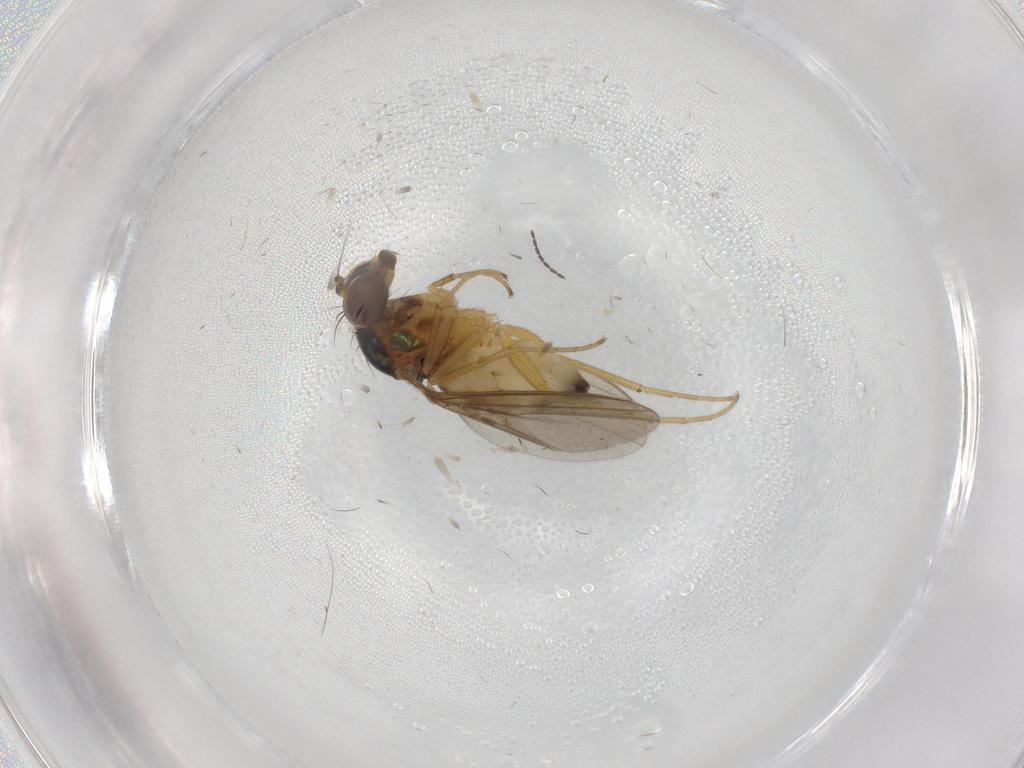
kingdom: Animalia
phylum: Arthropoda
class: Insecta
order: Diptera
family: Dolichopodidae
